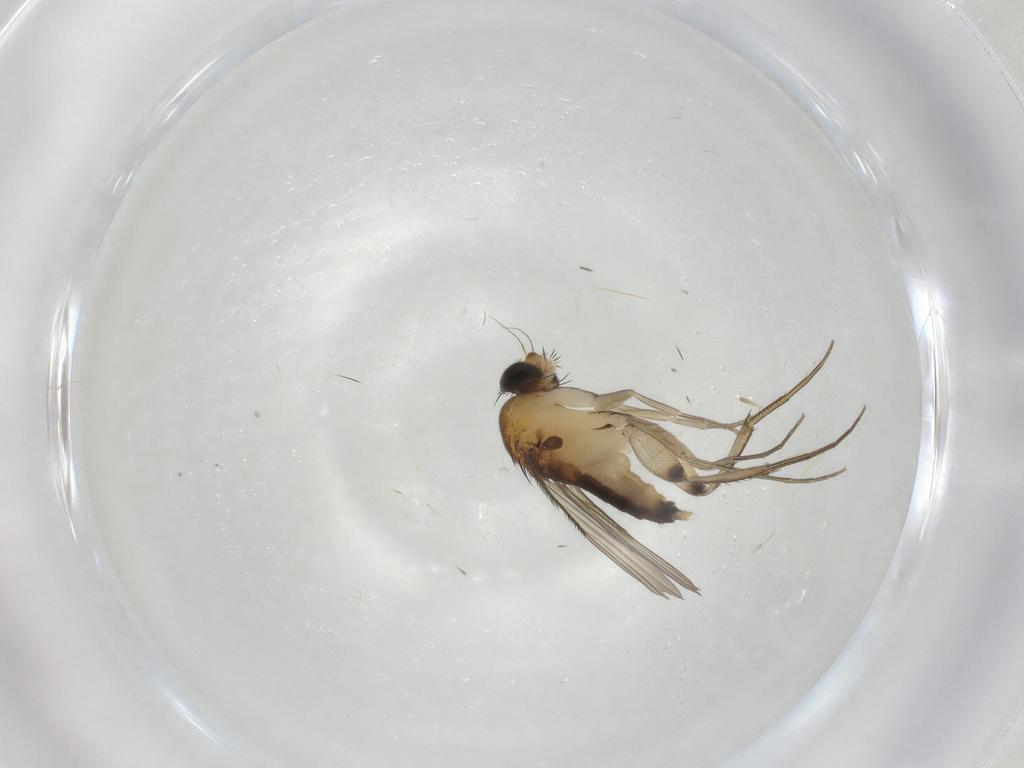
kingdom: Animalia
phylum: Arthropoda
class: Insecta
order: Diptera
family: Phoridae
